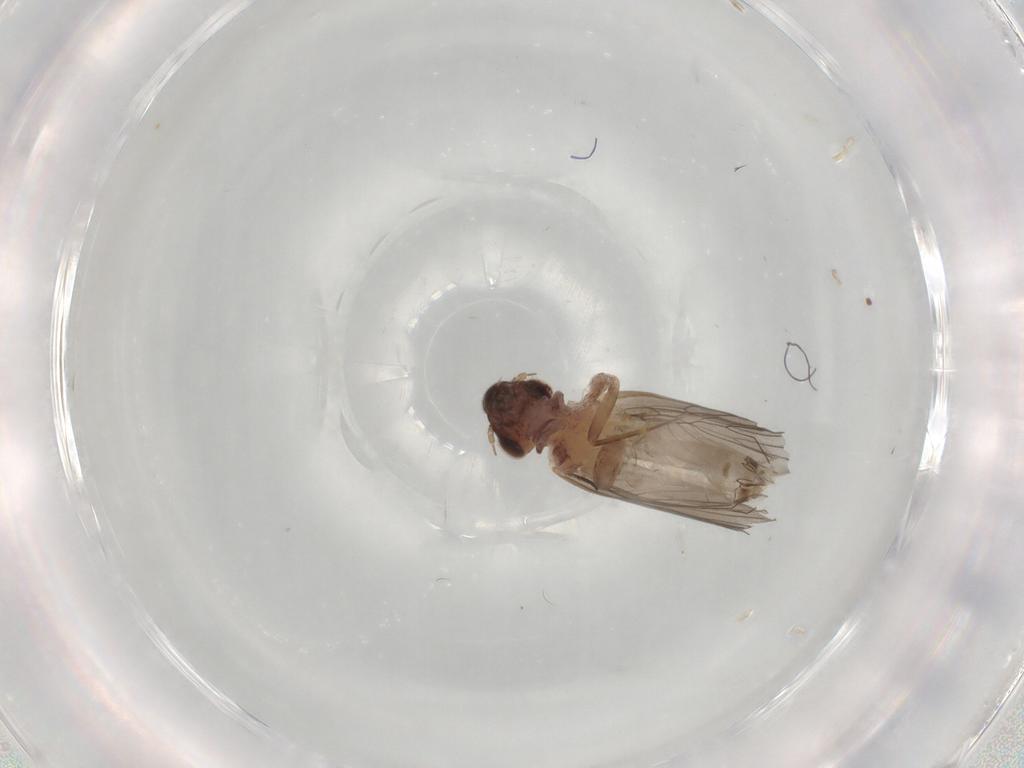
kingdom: Animalia
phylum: Arthropoda
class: Insecta
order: Psocodea
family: Lepidopsocidae
